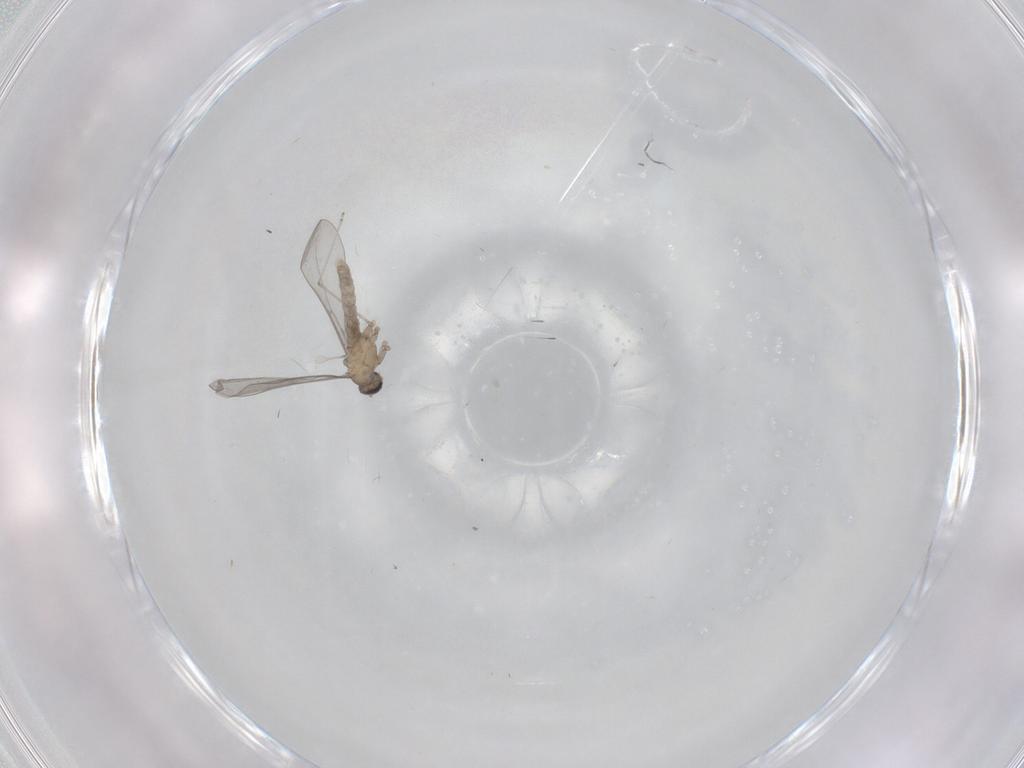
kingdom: Animalia
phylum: Arthropoda
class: Insecta
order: Diptera
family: Cecidomyiidae
